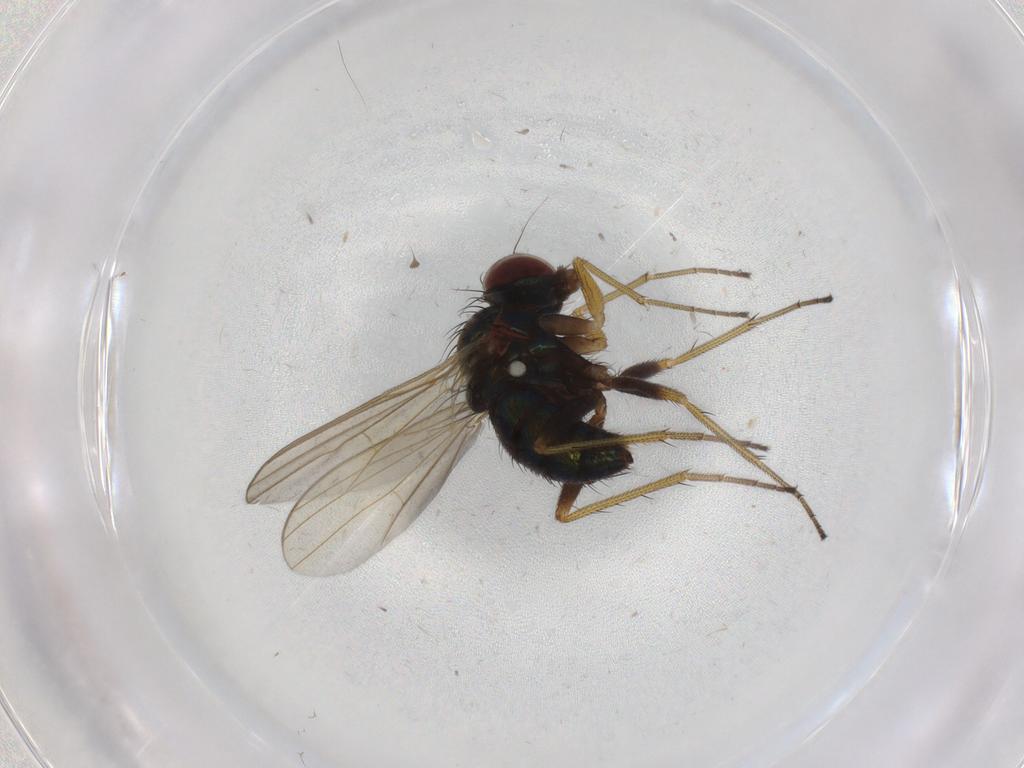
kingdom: Animalia
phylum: Arthropoda
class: Insecta
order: Diptera
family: Dolichopodidae
